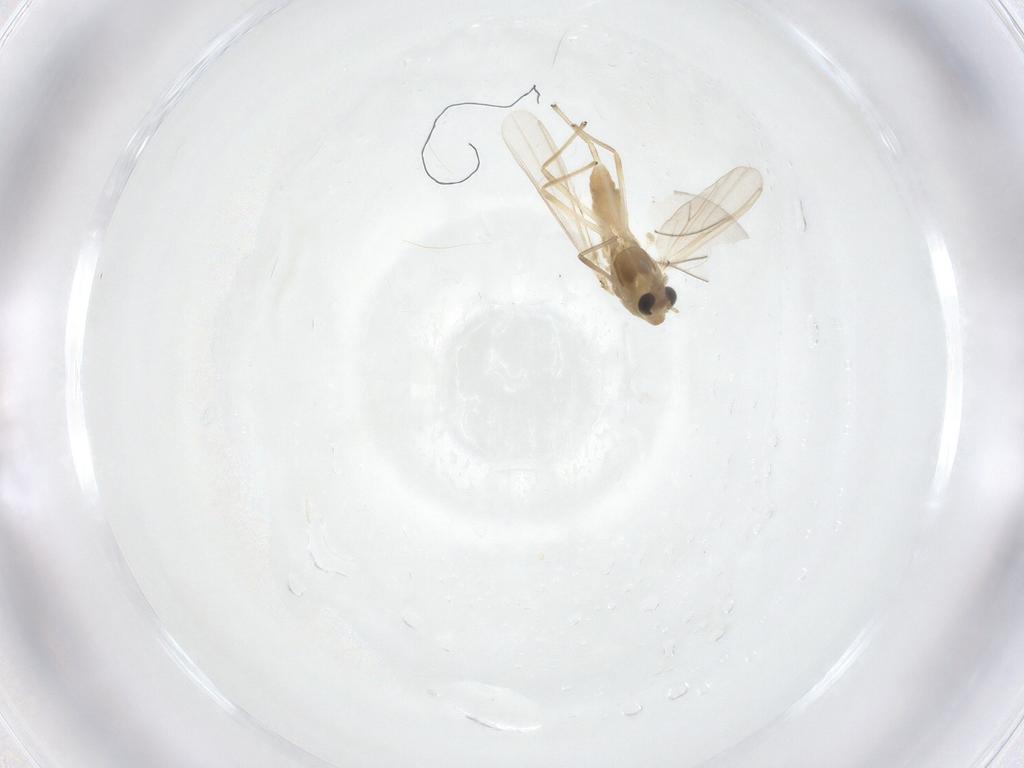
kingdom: Animalia
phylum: Arthropoda
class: Insecta
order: Diptera
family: Chironomidae
